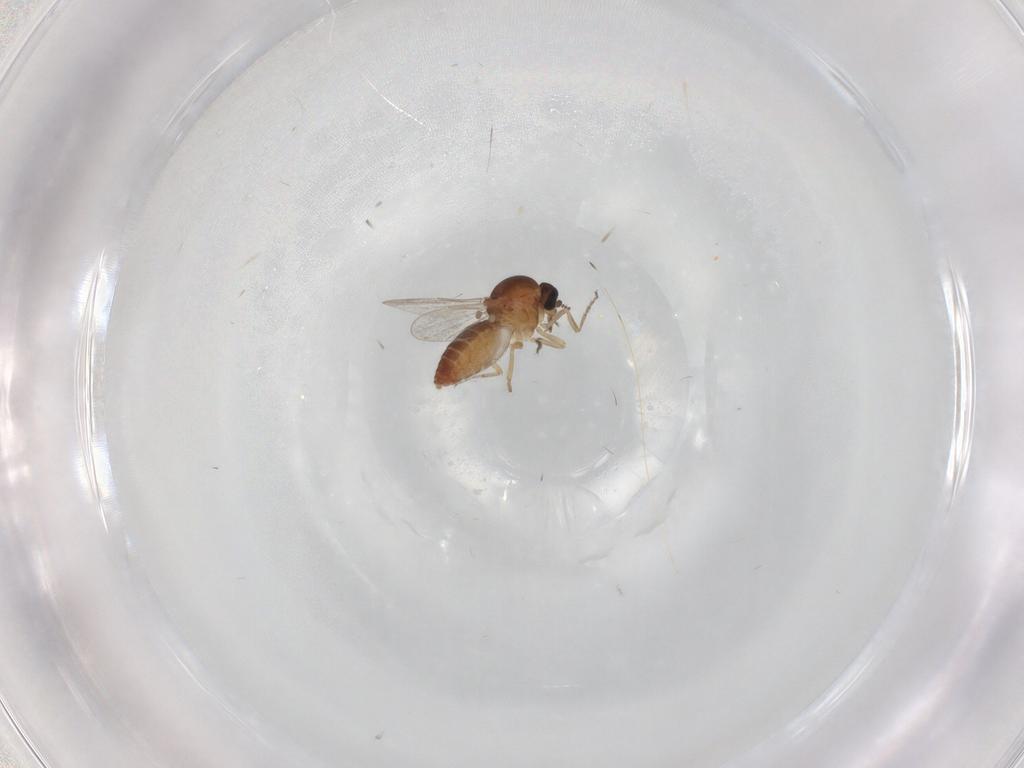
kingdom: Animalia
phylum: Arthropoda
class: Insecta
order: Diptera
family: Ceratopogonidae
